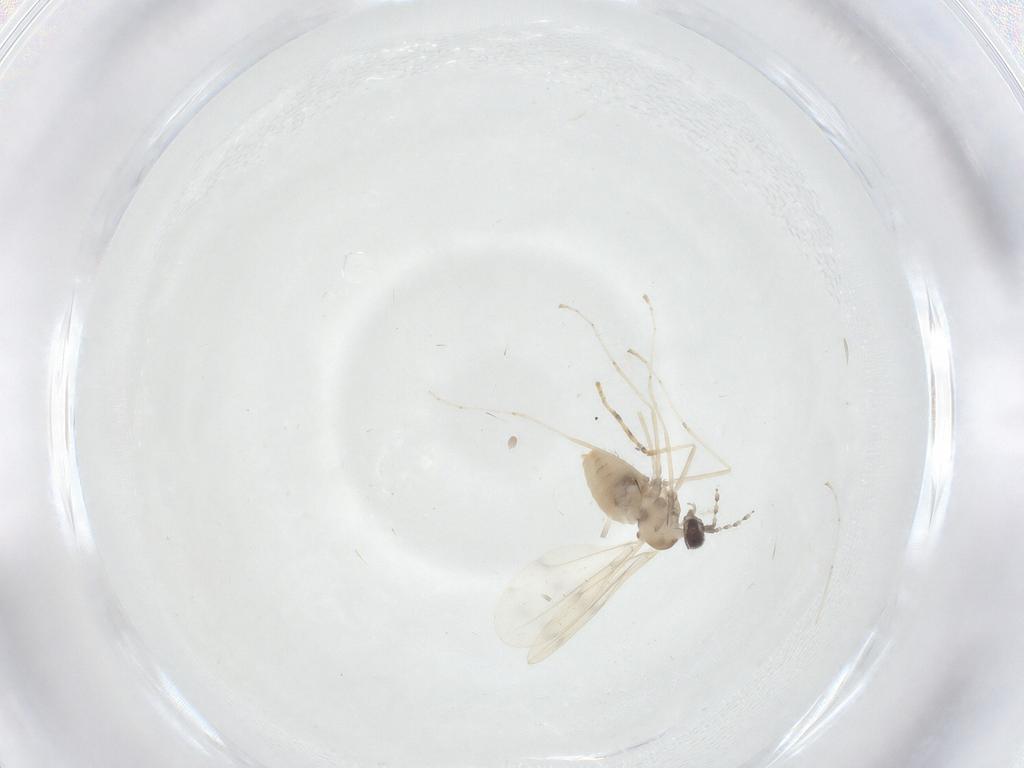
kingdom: Animalia
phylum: Arthropoda
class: Insecta
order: Diptera
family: Cecidomyiidae
